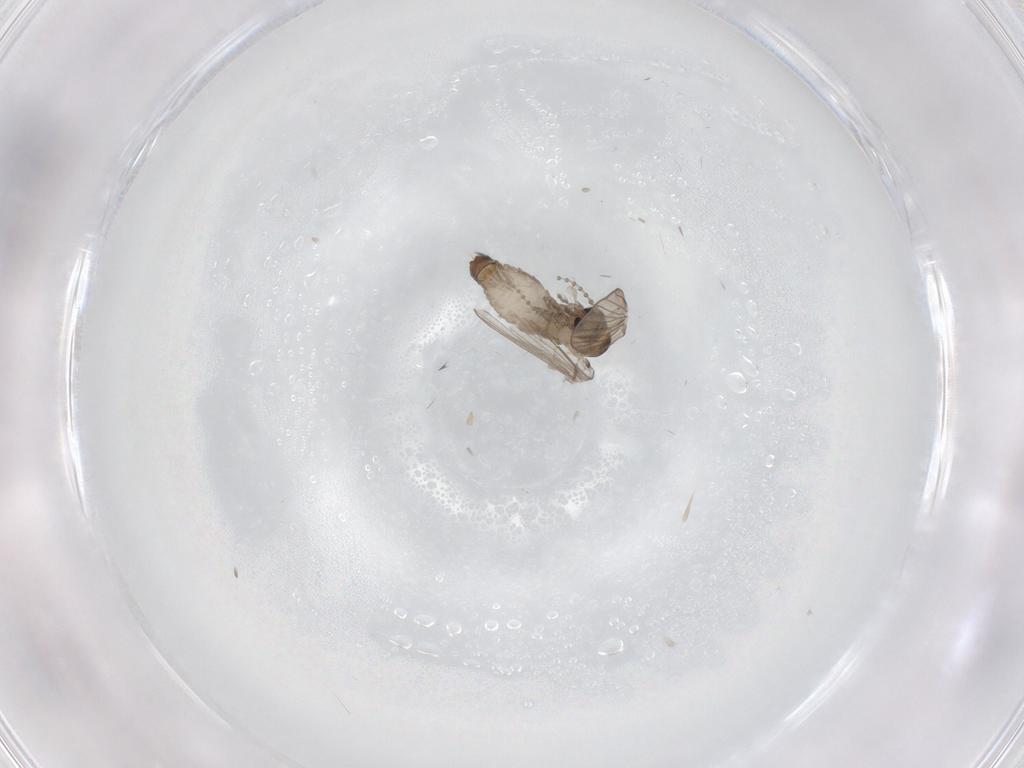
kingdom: Animalia
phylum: Arthropoda
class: Insecta
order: Diptera
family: Psychodidae
